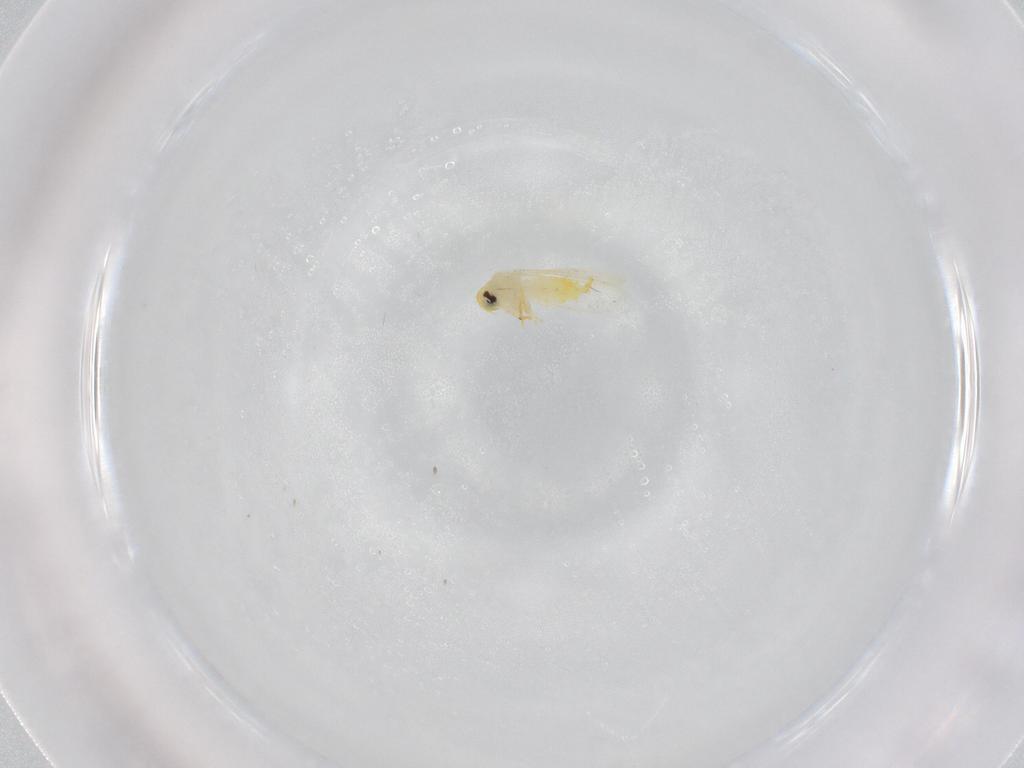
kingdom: Animalia
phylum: Arthropoda
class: Insecta
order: Hemiptera
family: Aleyrodidae
